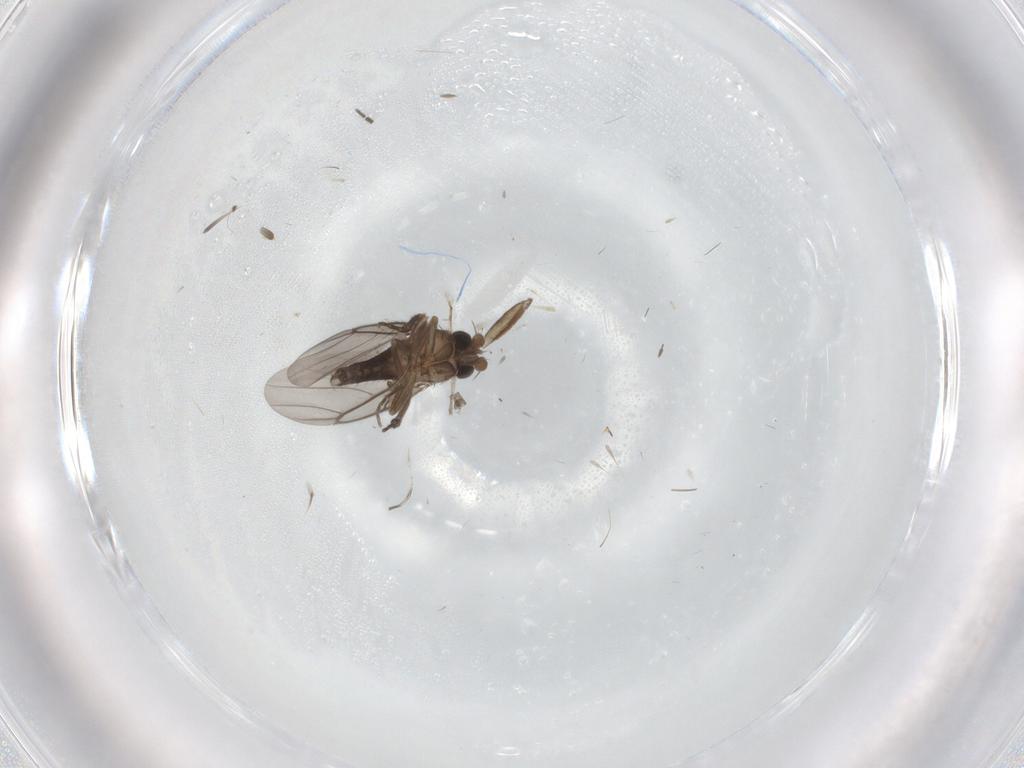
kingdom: Animalia
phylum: Arthropoda
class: Insecta
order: Diptera
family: Sciaridae
